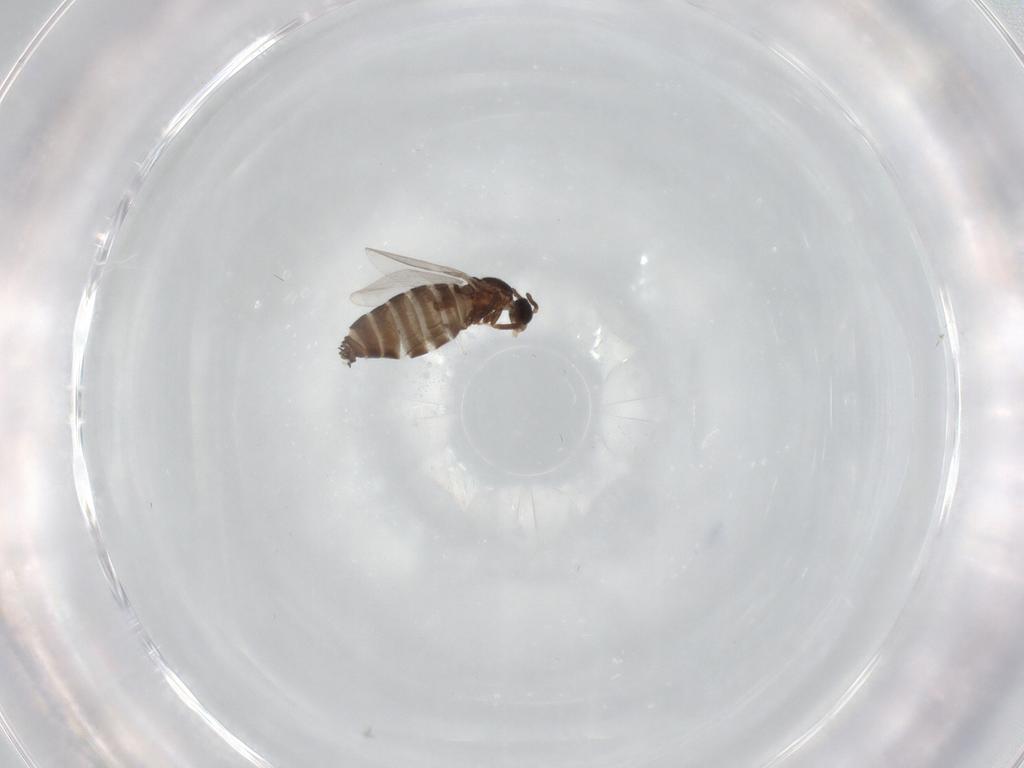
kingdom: Animalia
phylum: Arthropoda
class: Insecta
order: Diptera
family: Scatopsidae
